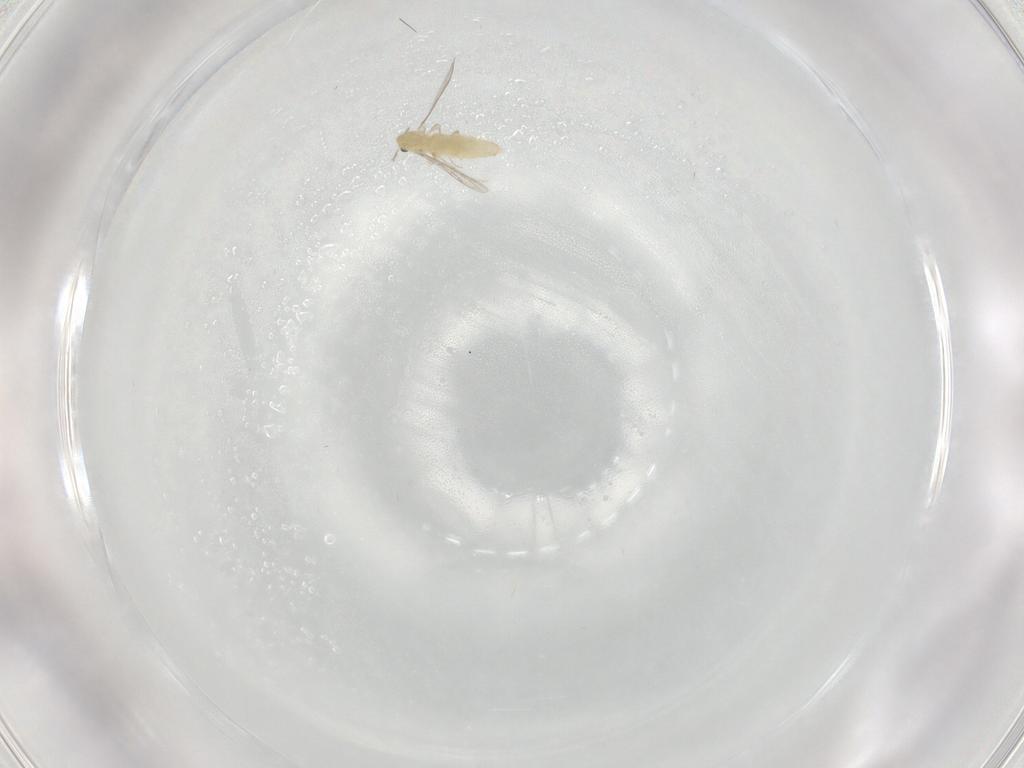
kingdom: Animalia
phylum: Arthropoda
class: Insecta
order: Diptera
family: Chironomidae
